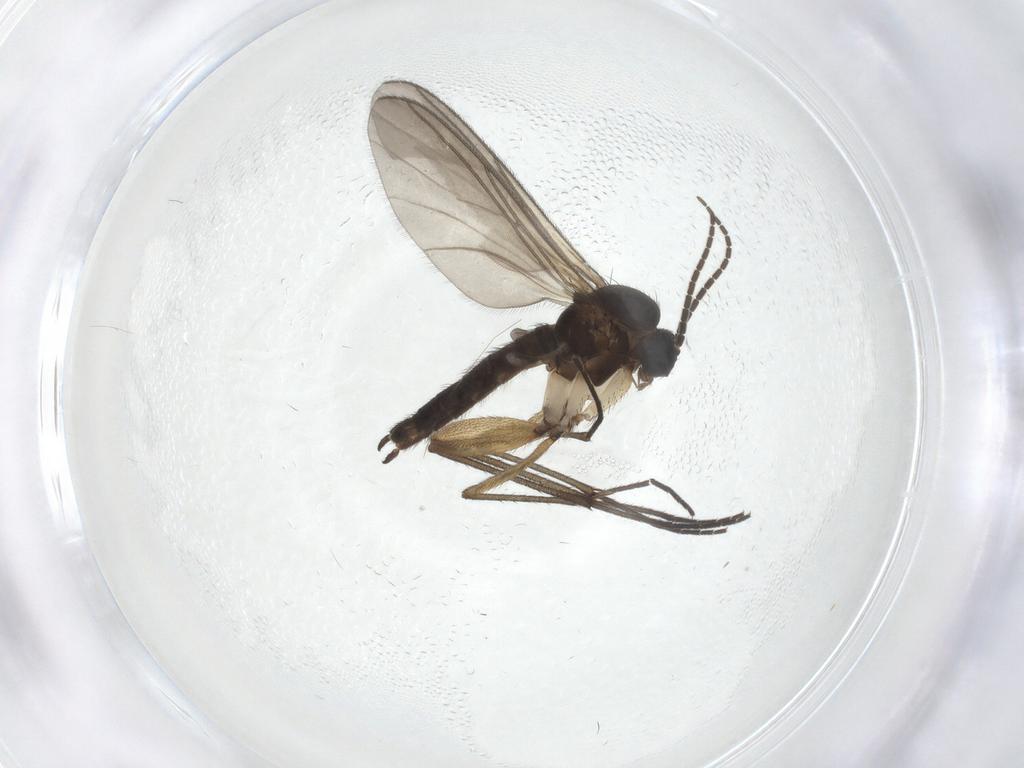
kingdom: Animalia
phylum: Arthropoda
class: Insecta
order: Diptera
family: Sciaridae
